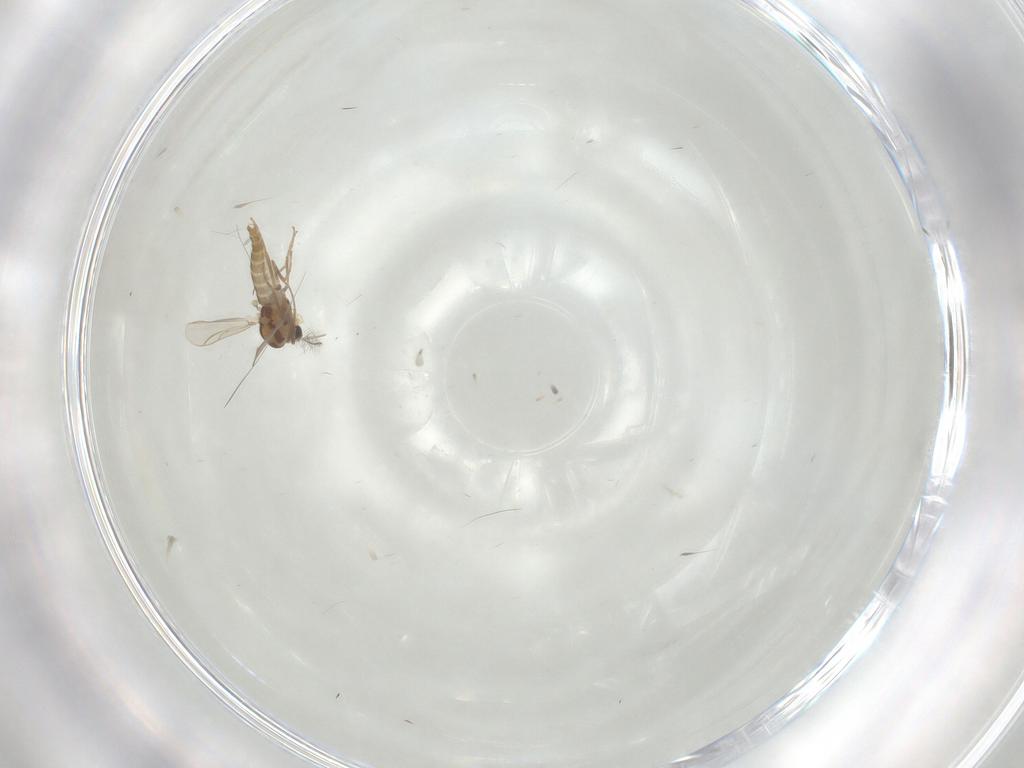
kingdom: Animalia
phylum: Arthropoda
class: Insecta
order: Diptera
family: Chironomidae
